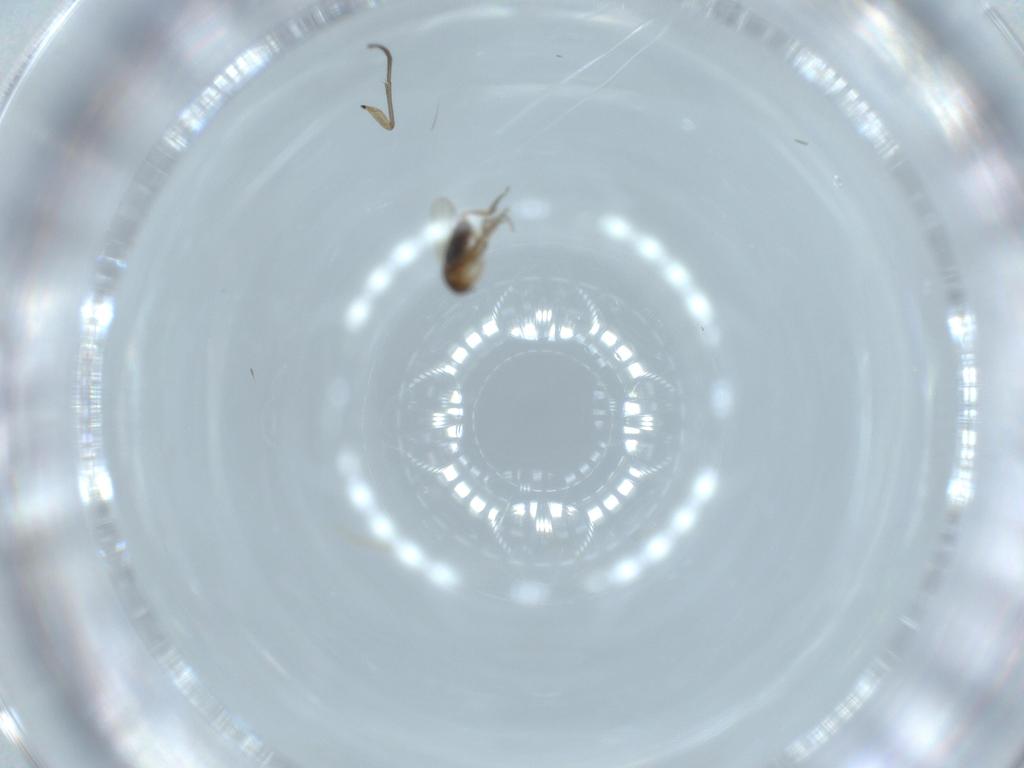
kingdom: Animalia
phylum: Arthropoda
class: Insecta
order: Diptera
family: Phoridae
